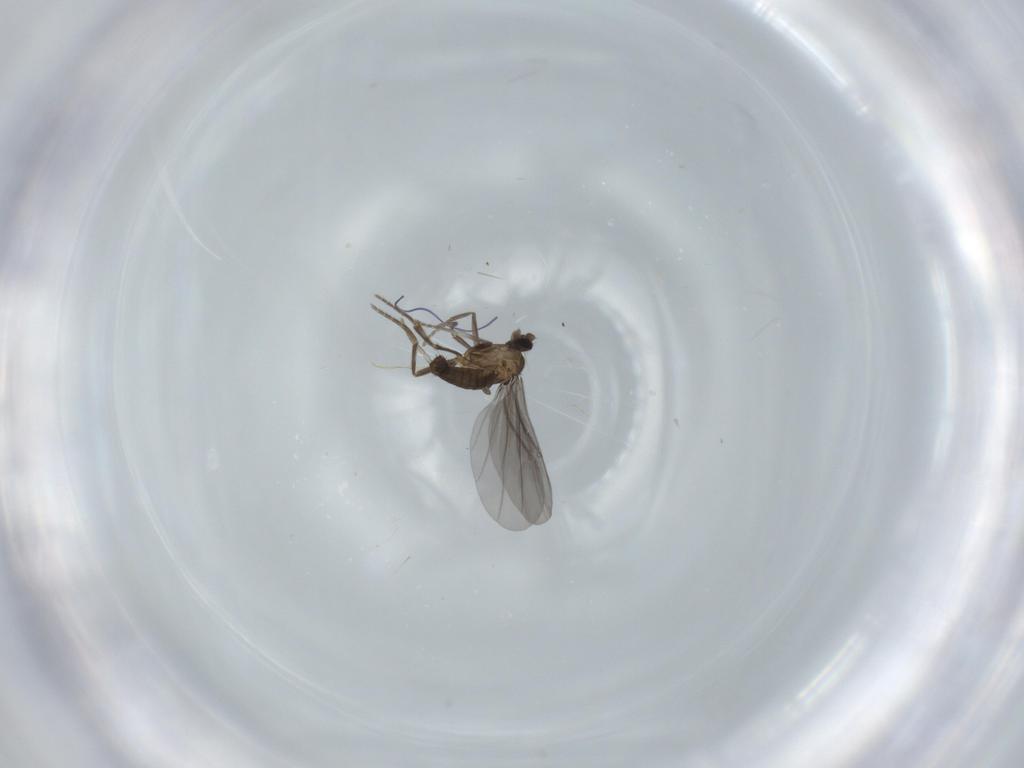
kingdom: Animalia
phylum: Arthropoda
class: Insecta
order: Diptera
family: Phoridae
